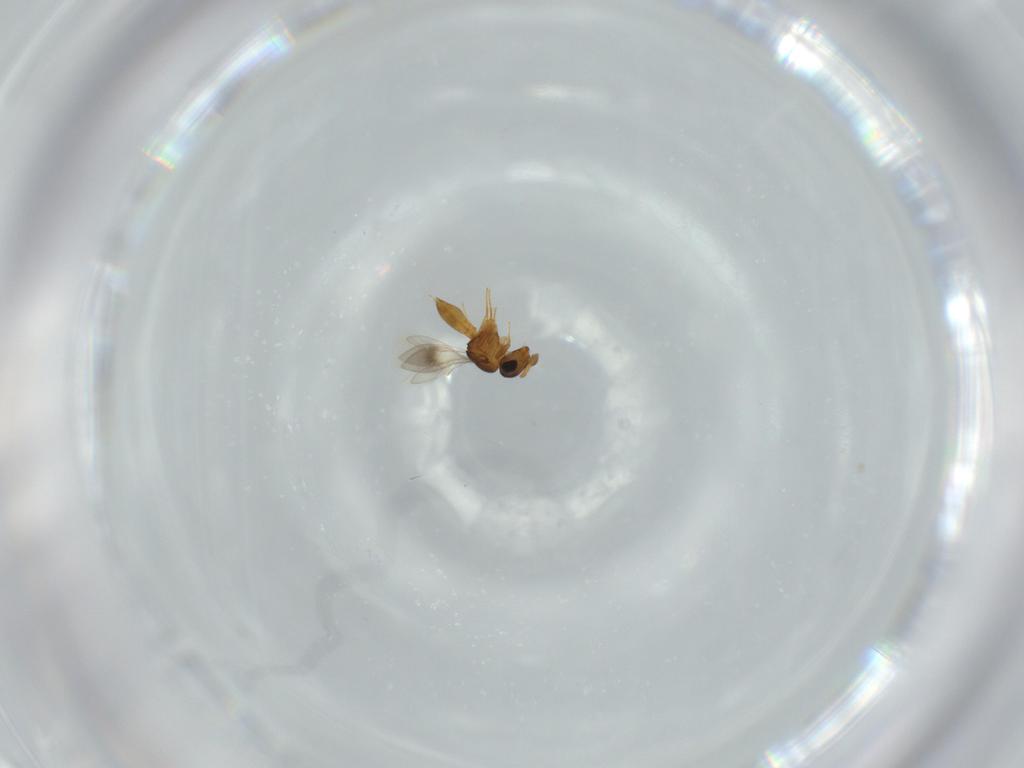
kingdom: Animalia
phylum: Arthropoda
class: Insecta
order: Hymenoptera
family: Scelionidae
